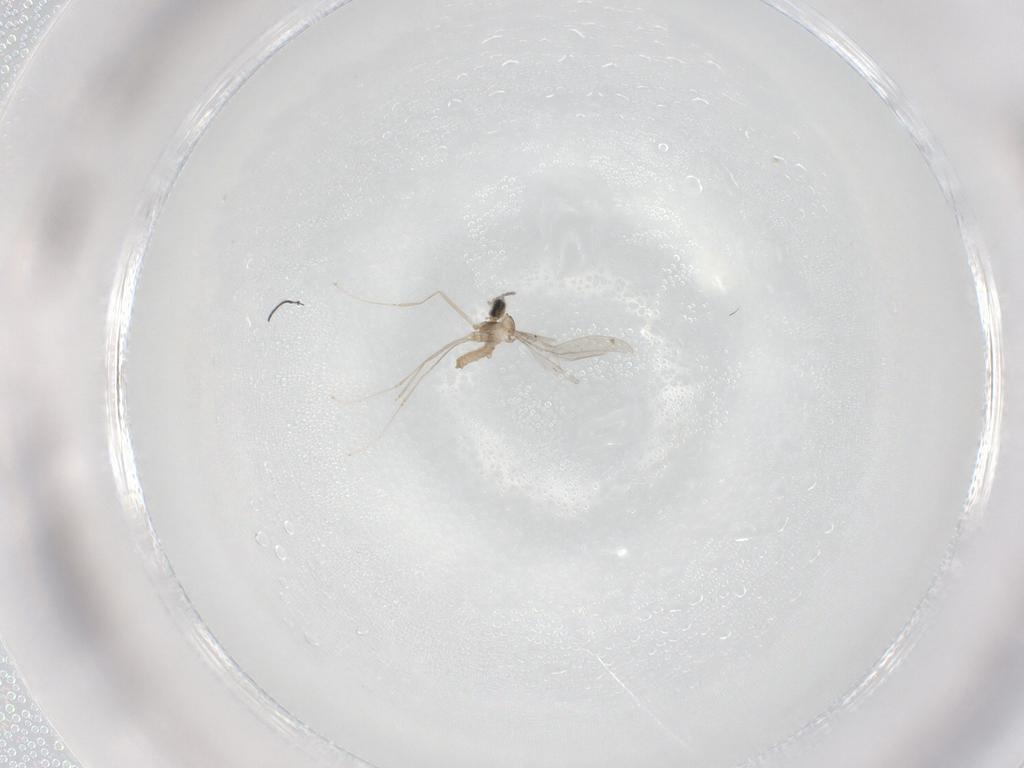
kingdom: Animalia
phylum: Arthropoda
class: Insecta
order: Diptera
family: Cecidomyiidae
